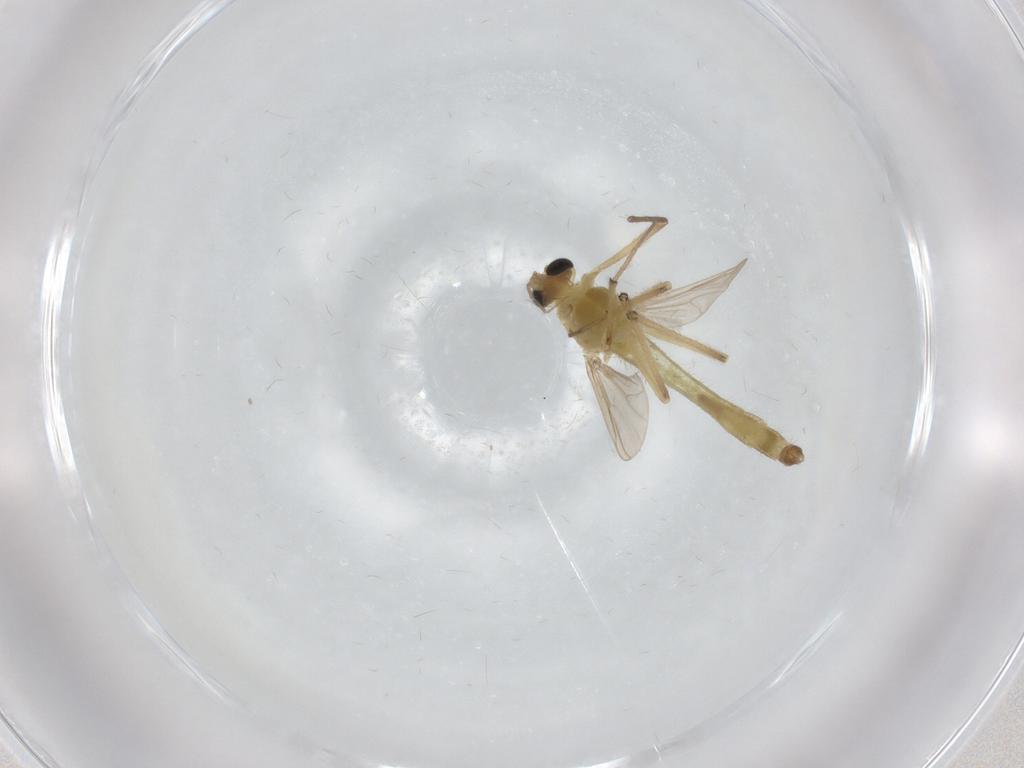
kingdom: Animalia
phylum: Arthropoda
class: Insecta
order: Diptera
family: Chironomidae
